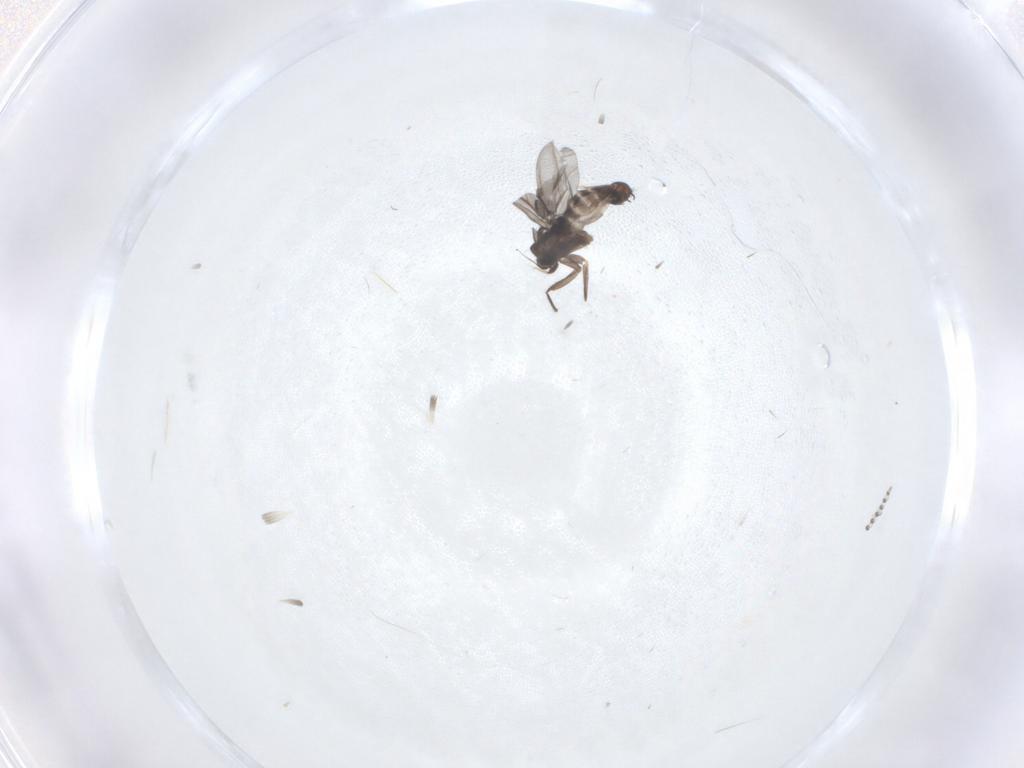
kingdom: Animalia
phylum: Arthropoda
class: Insecta
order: Diptera
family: Psychodidae
